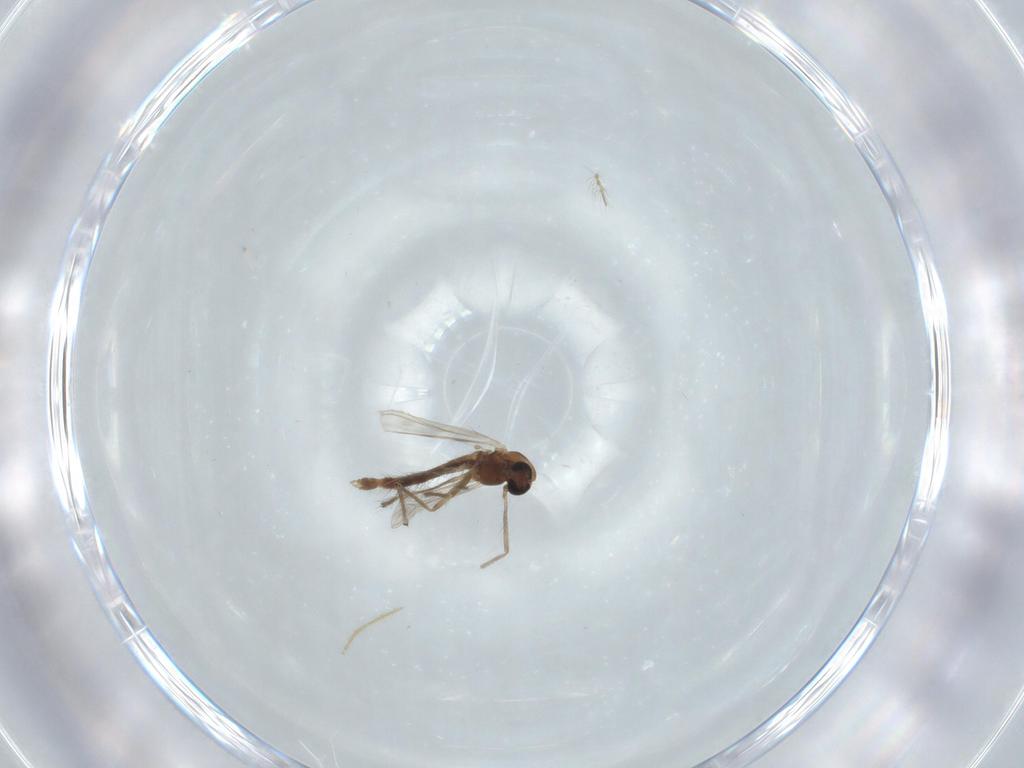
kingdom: Animalia
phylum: Arthropoda
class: Insecta
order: Diptera
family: Chironomidae
